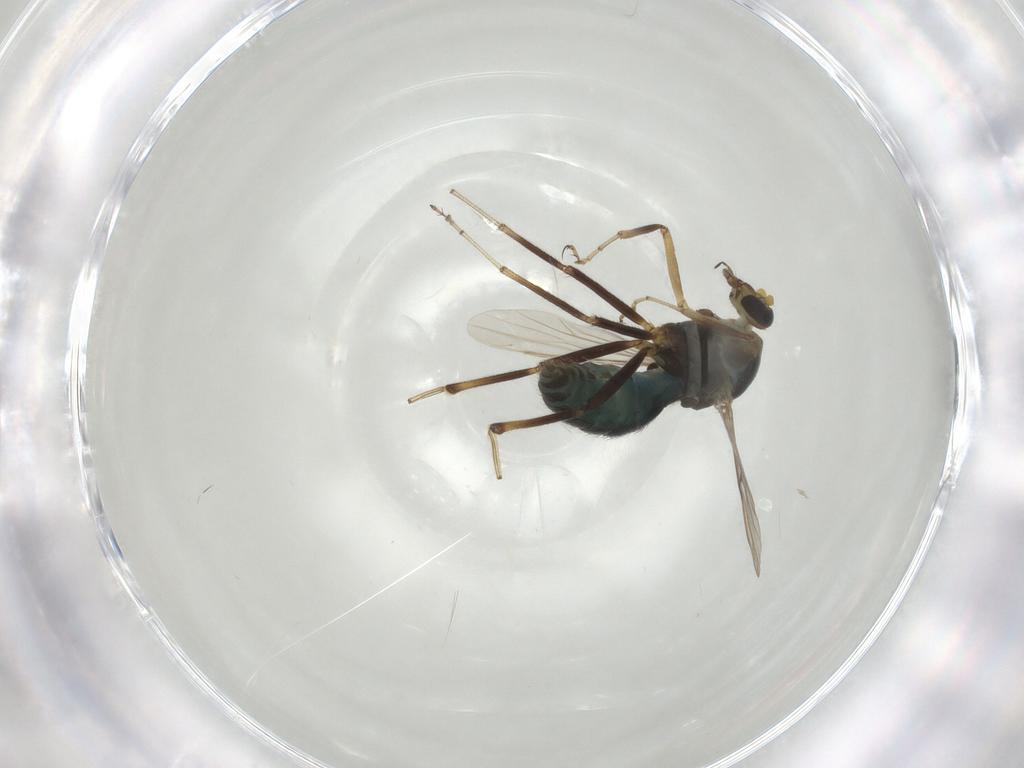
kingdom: Animalia
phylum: Arthropoda
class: Insecta
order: Diptera
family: Ceratopogonidae
